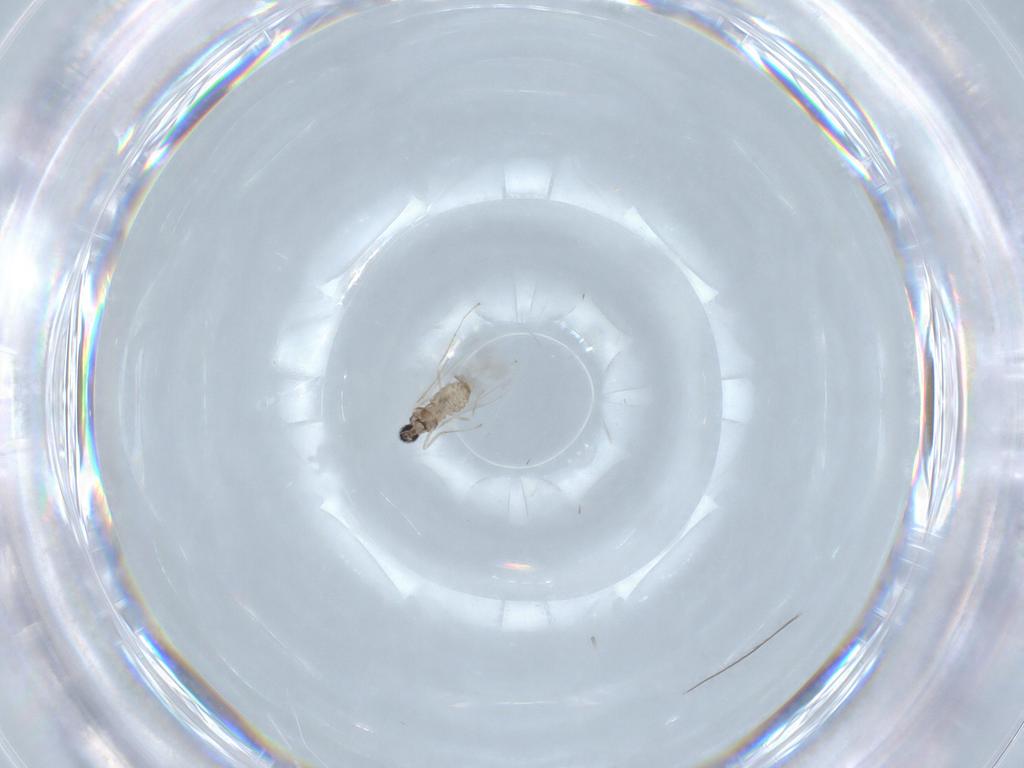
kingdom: Animalia
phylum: Arthropoda
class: Insecta
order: Diptera
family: Cecidomyiidae
